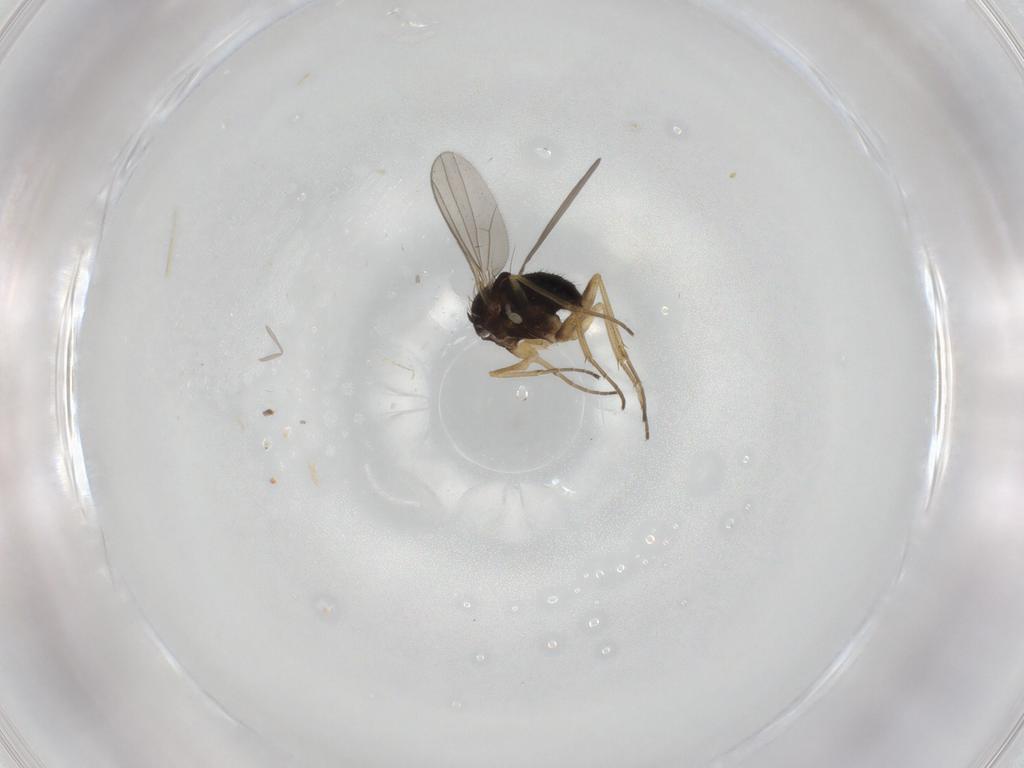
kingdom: Animalia
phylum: Arthropoda
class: Insecta
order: Diptera
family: Dolichopodidae
